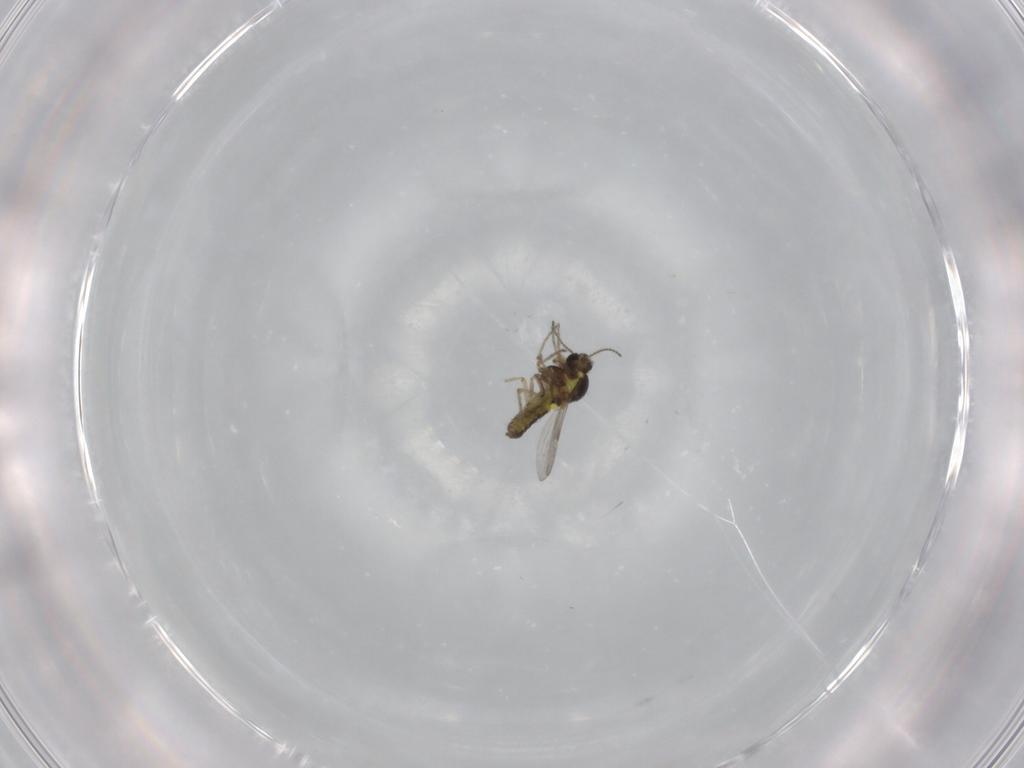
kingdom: Animalia
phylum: Arthropoda
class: Insecta
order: Diptera
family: Ceratopogonidae
